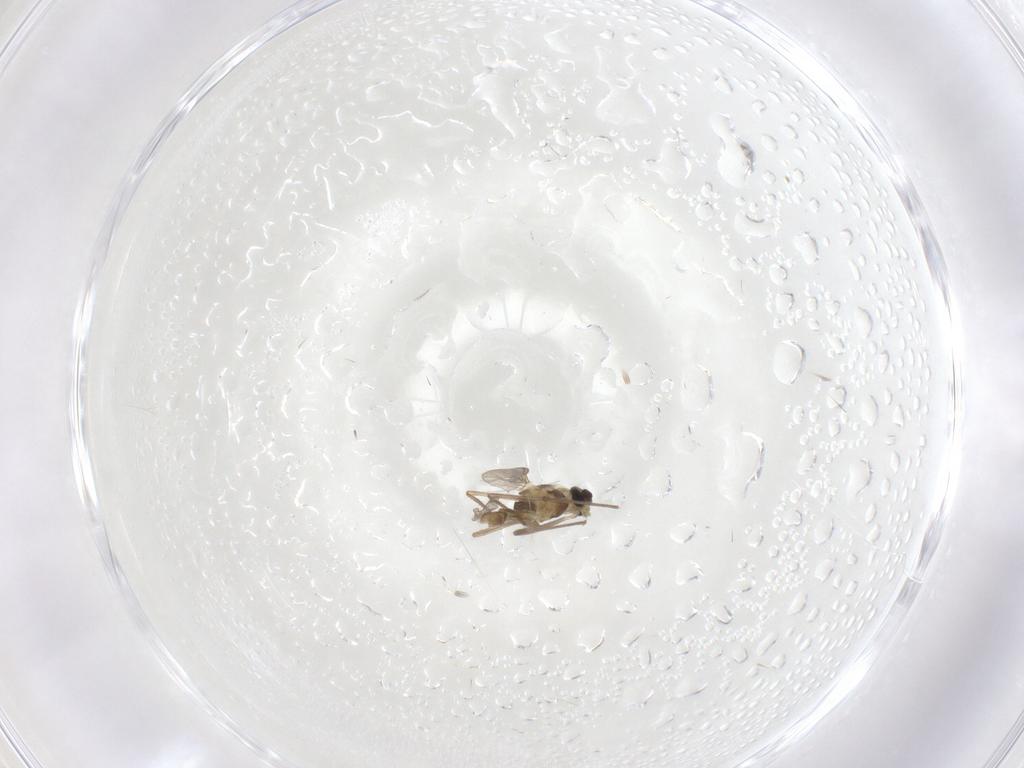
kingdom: Animalia
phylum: Arthropoda
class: Insecta
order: Diptera
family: Chironomidae
